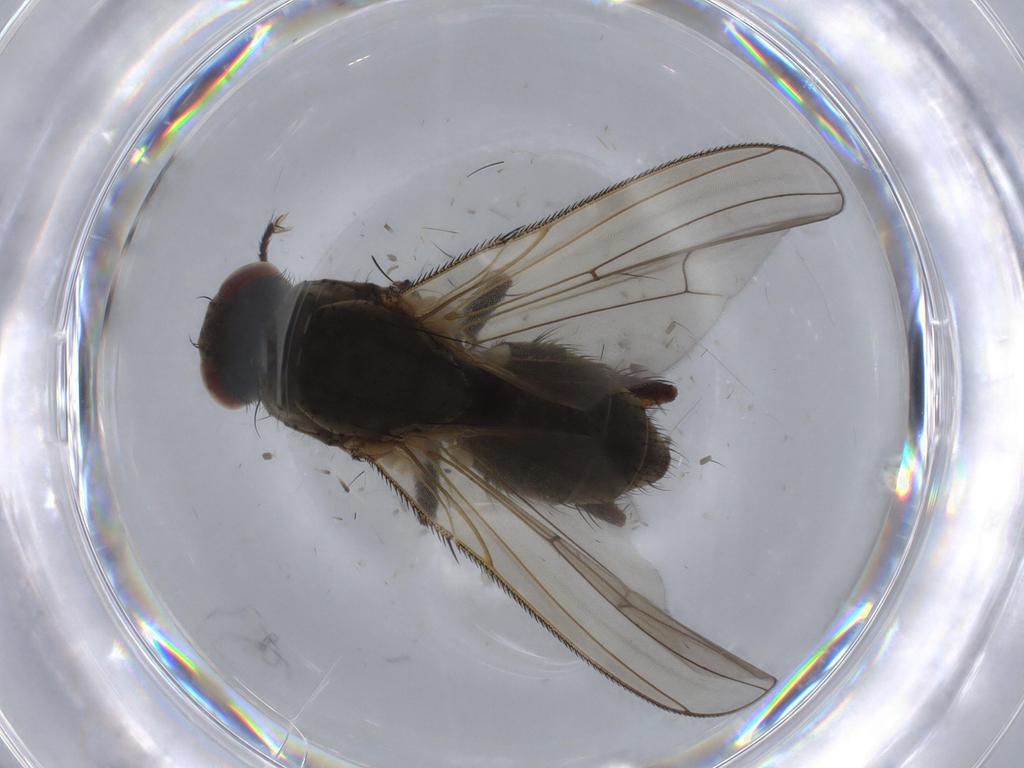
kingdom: Animalia
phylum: Arthropoda
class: Insecta
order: Diptera
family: Anthomyiidae
